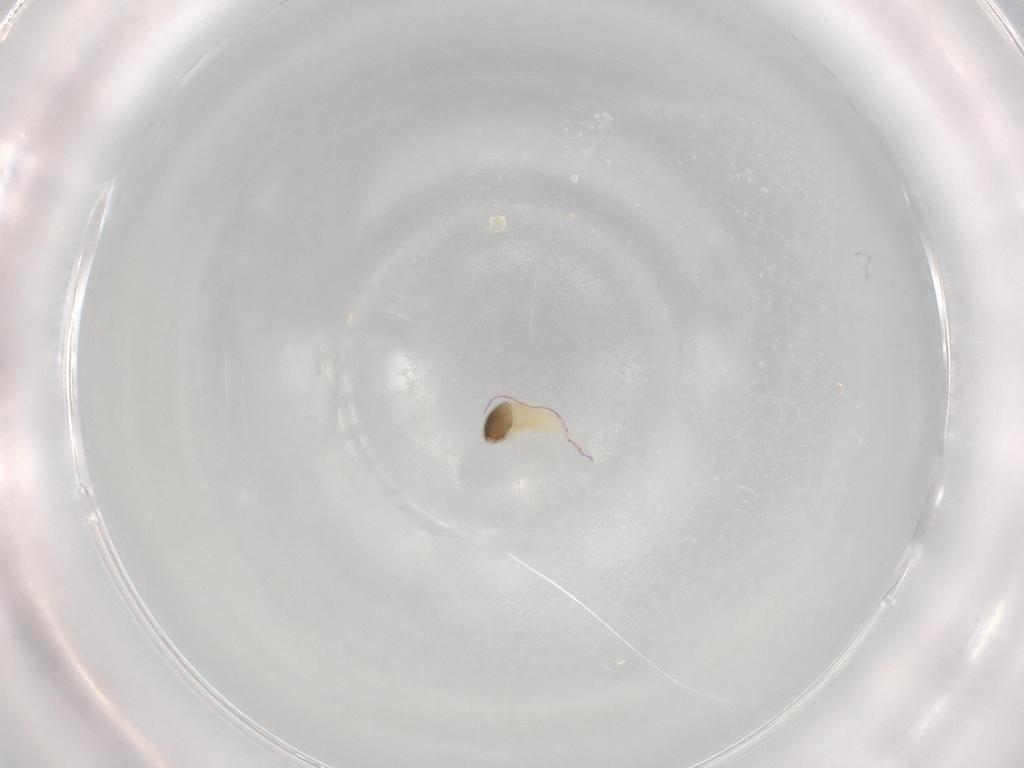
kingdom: Animalia
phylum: Arthropoda
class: Insecta
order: Hymenoptera
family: Ichneumonidae
